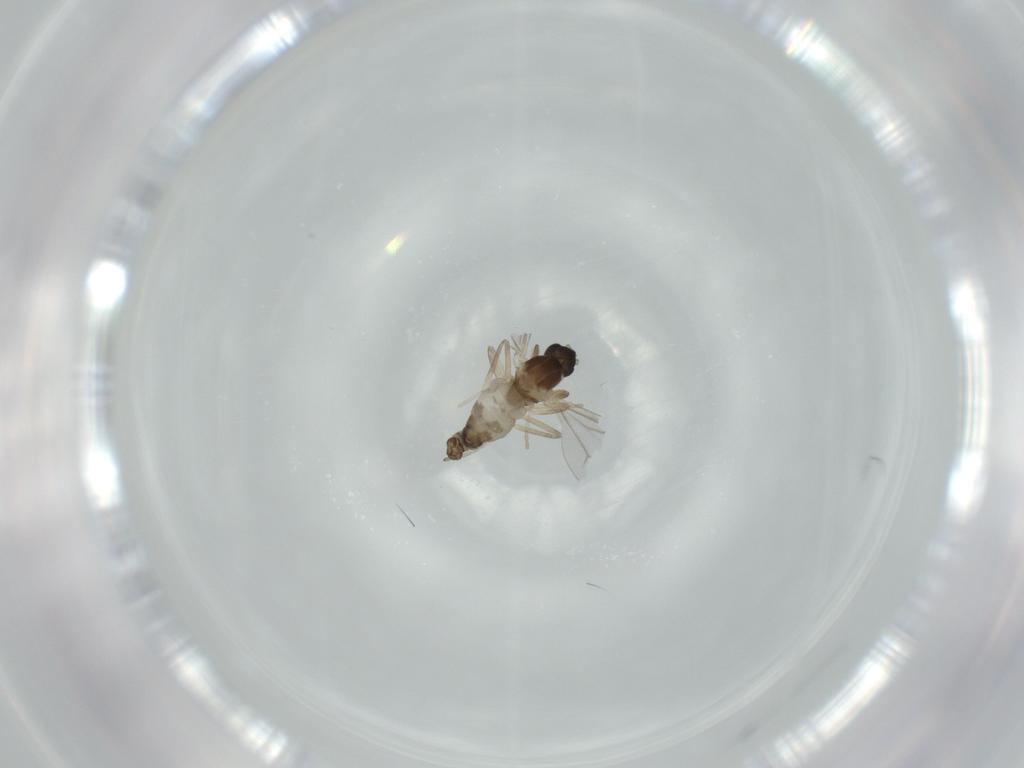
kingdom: Animalia
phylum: Arthropoda
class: Insecta
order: Diptera
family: Cecidomyiidae
